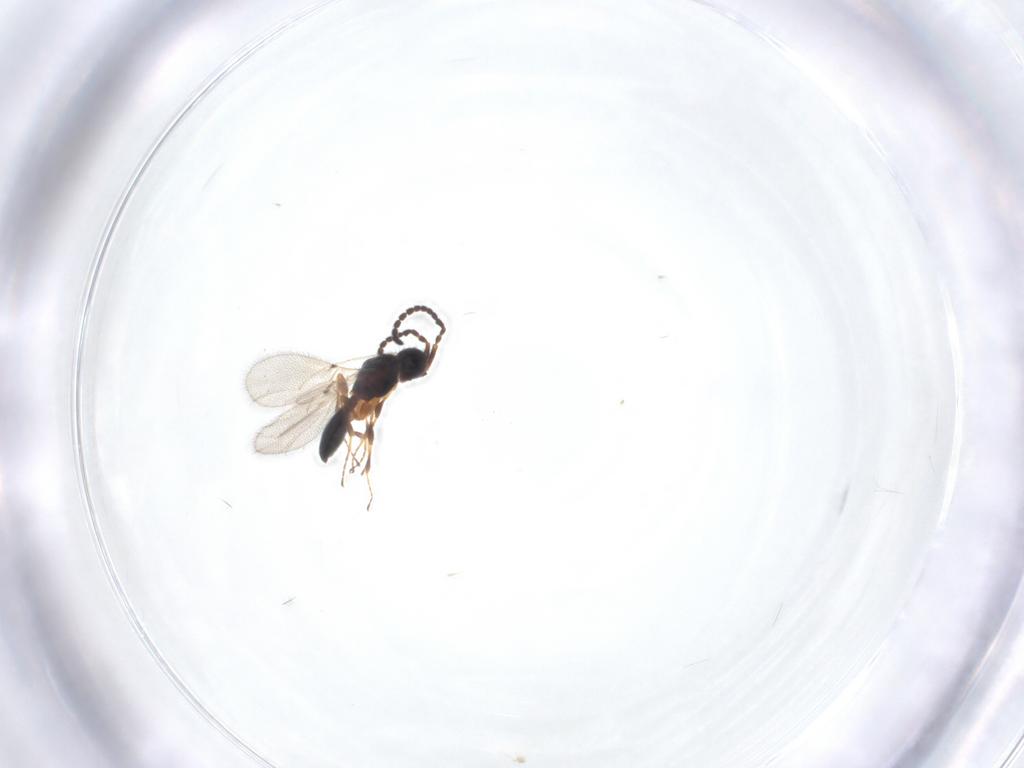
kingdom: Animalia
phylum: Arthropoda
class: Insecta
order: Hymenoptera
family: Diapriidae
